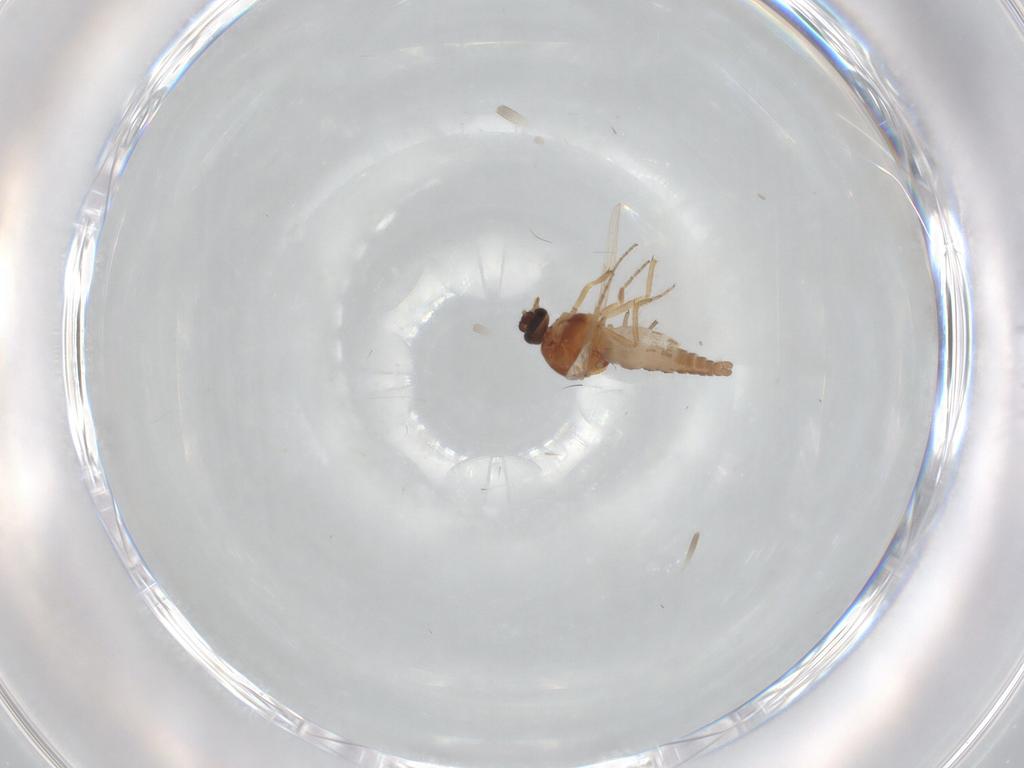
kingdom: Animalia
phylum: Arthropoda
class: Insecta
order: Diptera
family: Ceratopogonidae
